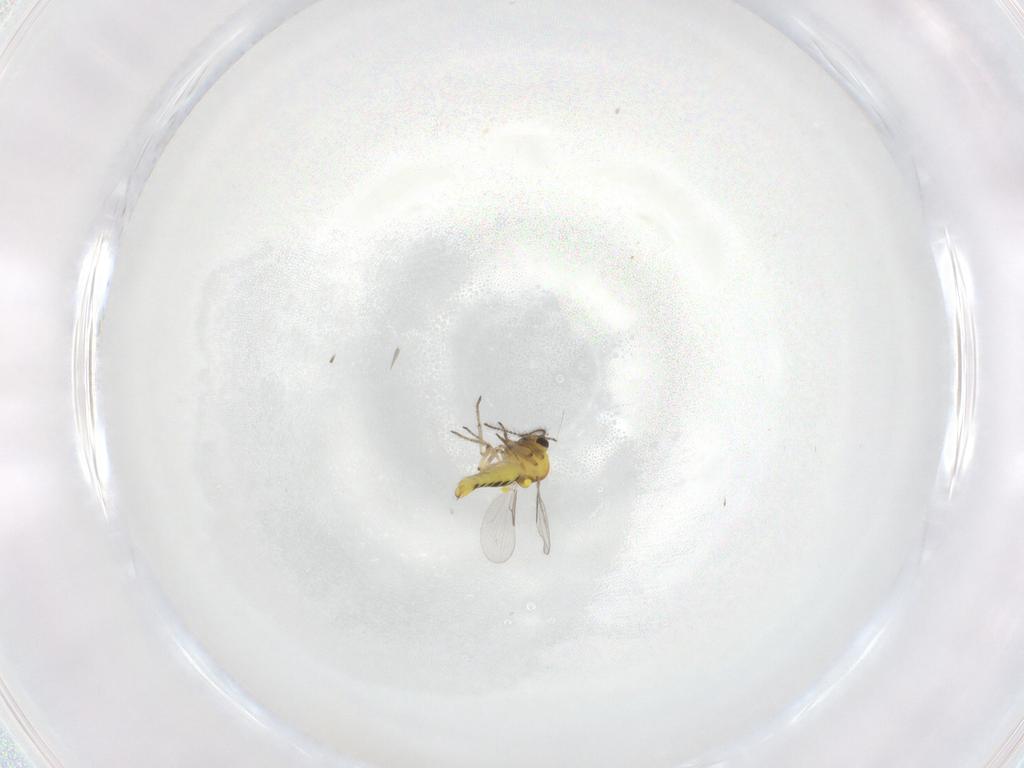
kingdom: Animalia
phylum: Arthropoda
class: Insecta
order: Diptera
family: Ceratopogonidae
